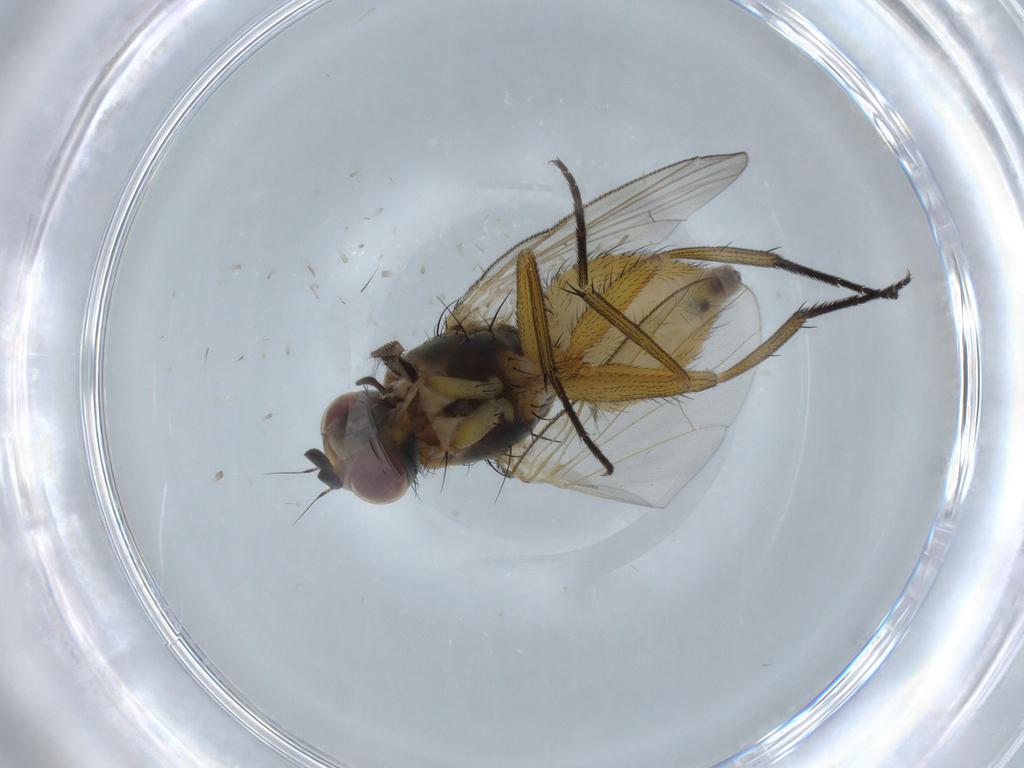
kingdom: Animalia
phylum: Arthropoda
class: Insecta
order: Diptera
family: Muscidae
